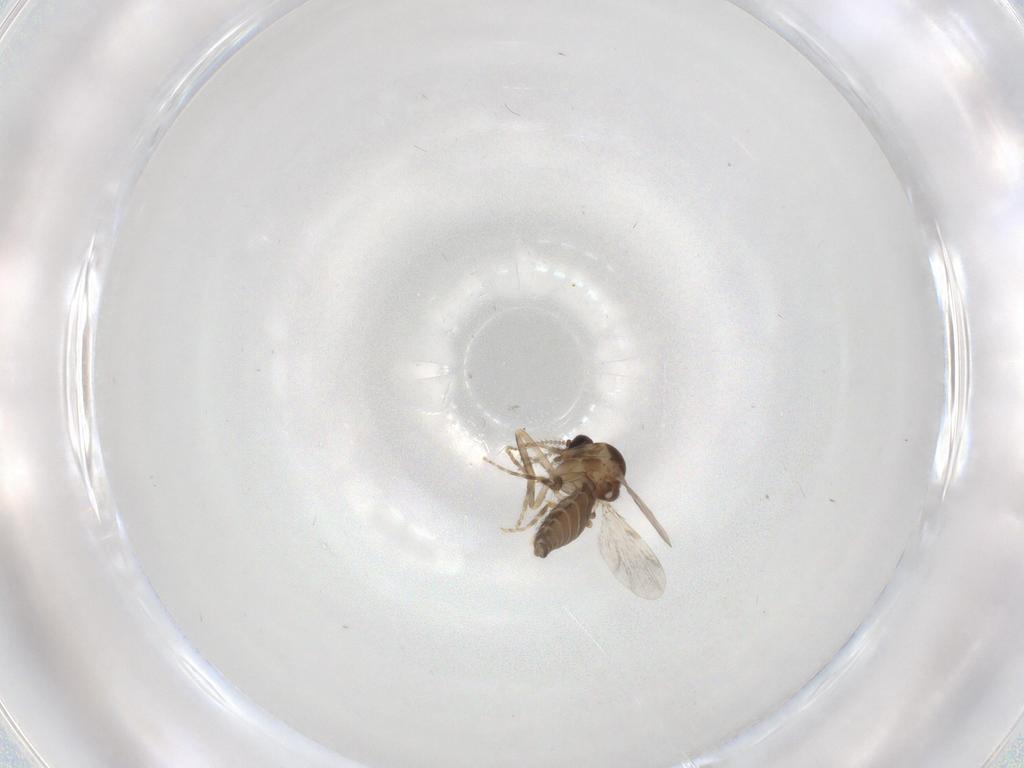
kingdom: Animalia
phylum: Arthropoda
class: Insecta
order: Diptera
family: Ceratopogonidae
